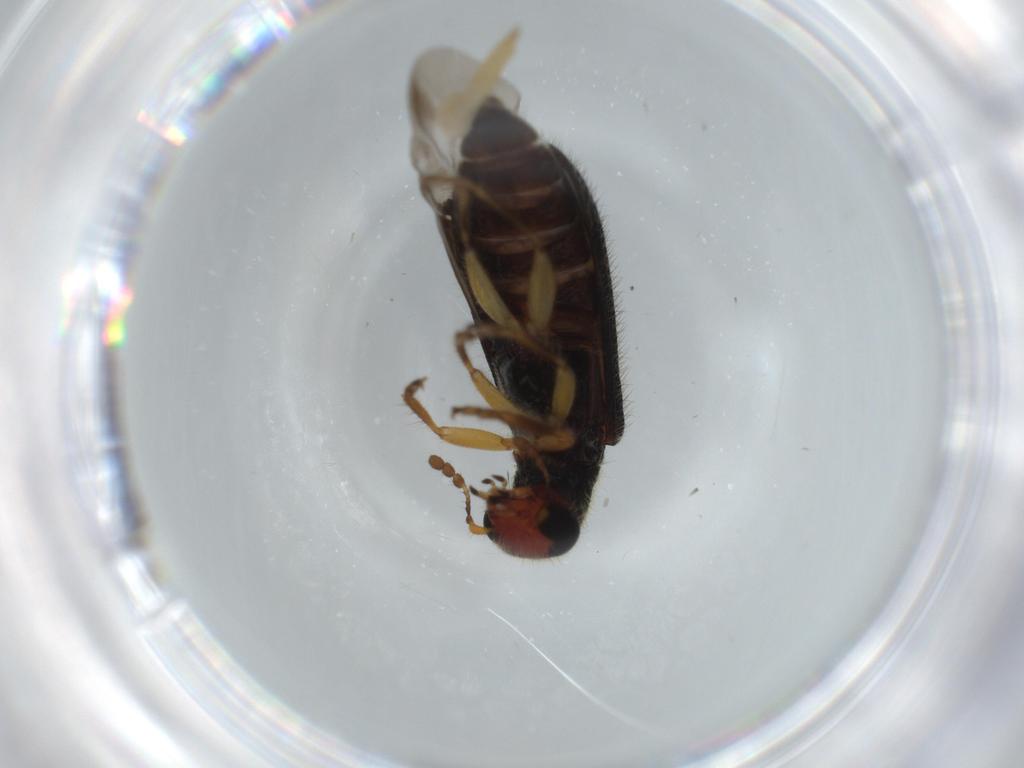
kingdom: Animalia
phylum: Arthropoda
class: Insecta
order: Coleoptera
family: Cleridae
